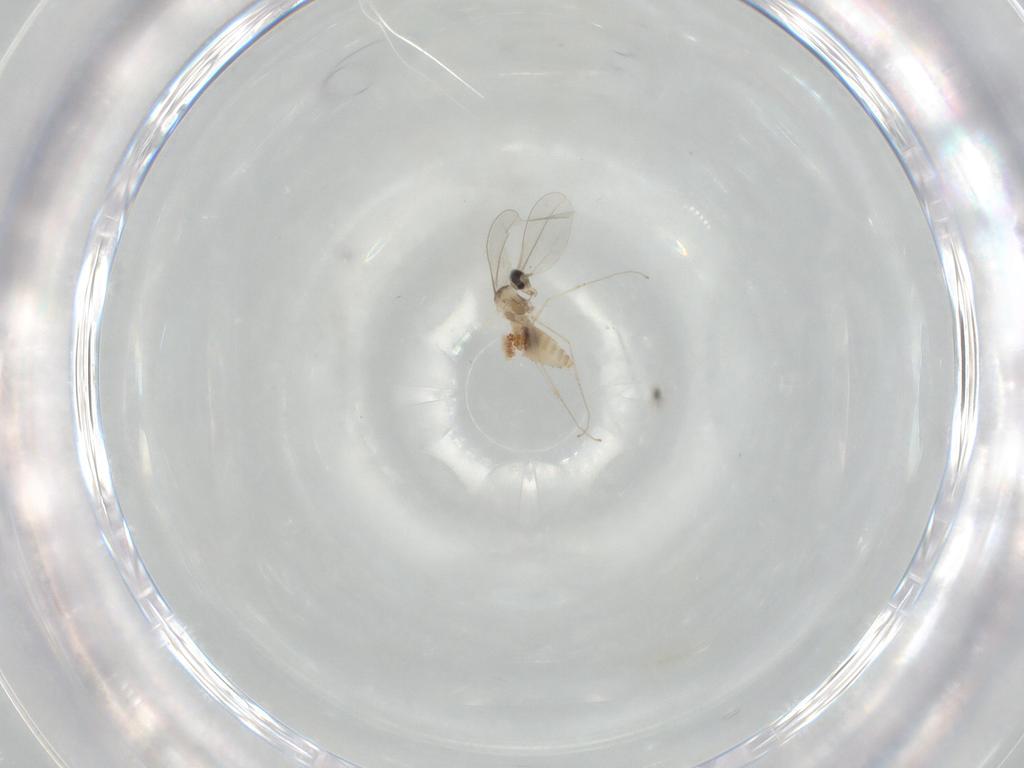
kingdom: Animalia
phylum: Arthropoda
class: Insecta
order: Diptera
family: Cecidomyiidae
